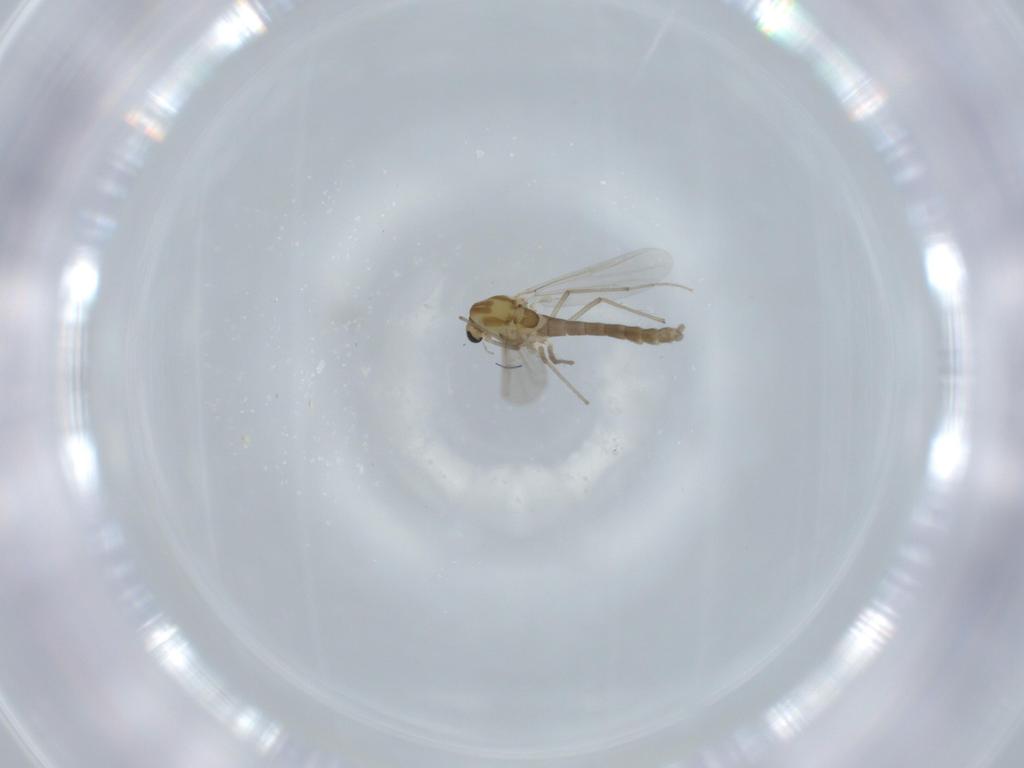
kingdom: Animalia
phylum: Arthropoda
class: Insecta
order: Diptera
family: Chironomidae
